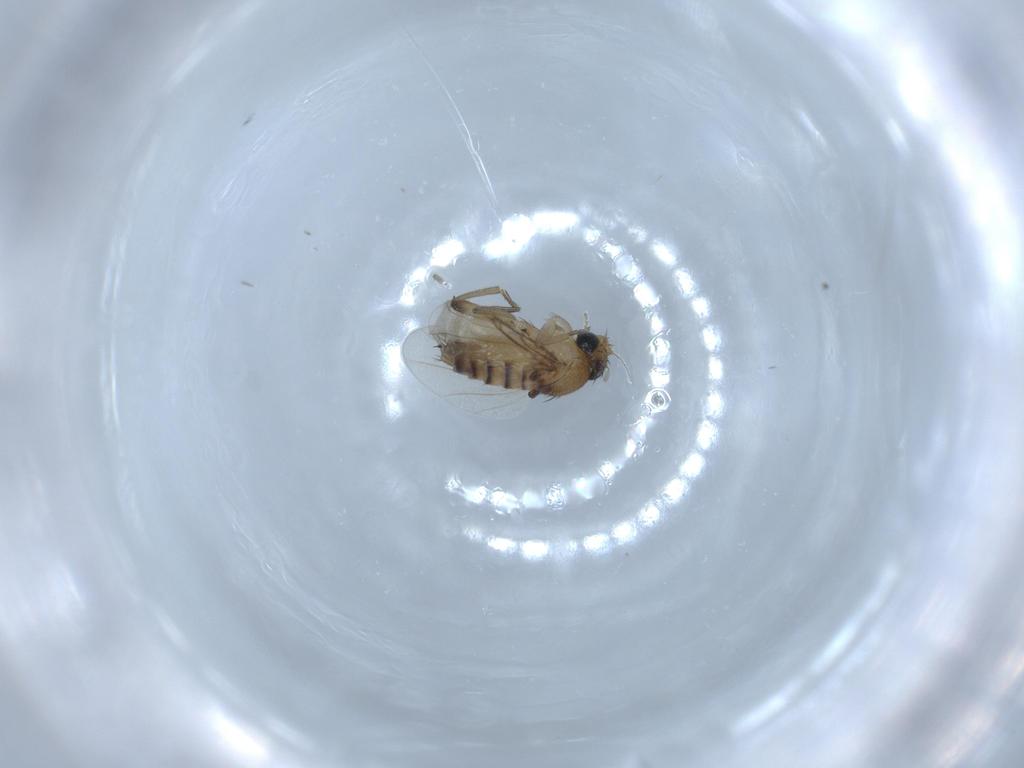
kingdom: Animalia
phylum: Arthropoda
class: Insecta
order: Diptera
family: Phoridae
